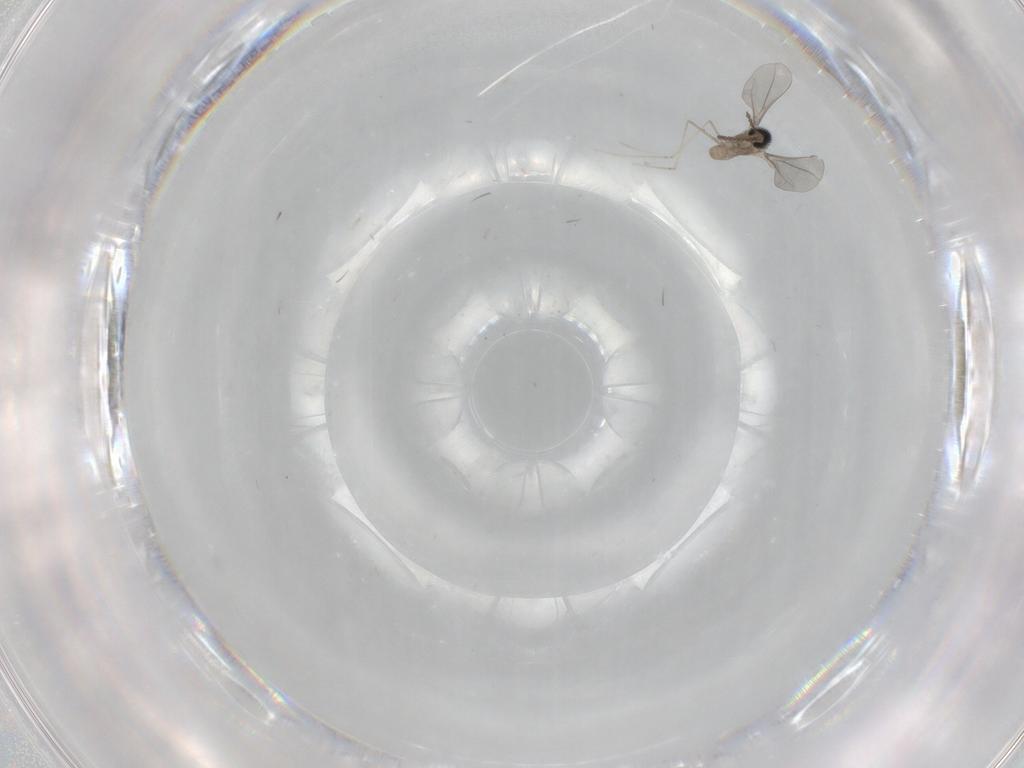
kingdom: Animalia
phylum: Arthropoda
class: Insecta
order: Diptera
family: Cecidomyiidae
